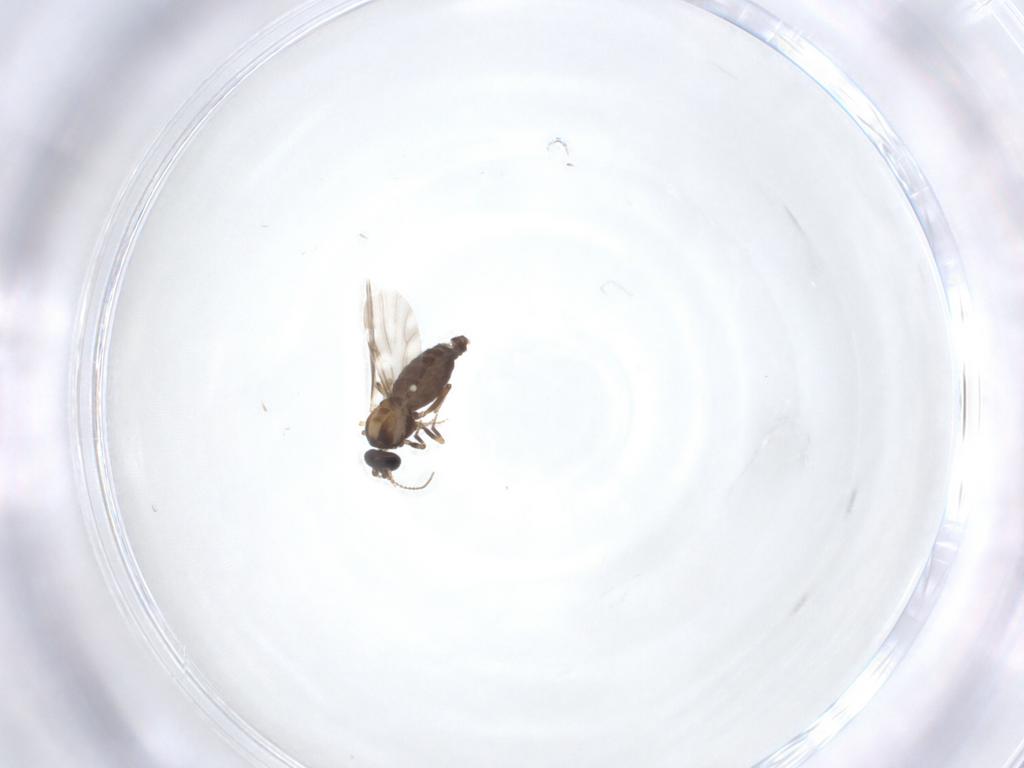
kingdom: Animalia
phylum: Arthropoda
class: Insecta
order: Diptera
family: Ceratopogonidae
